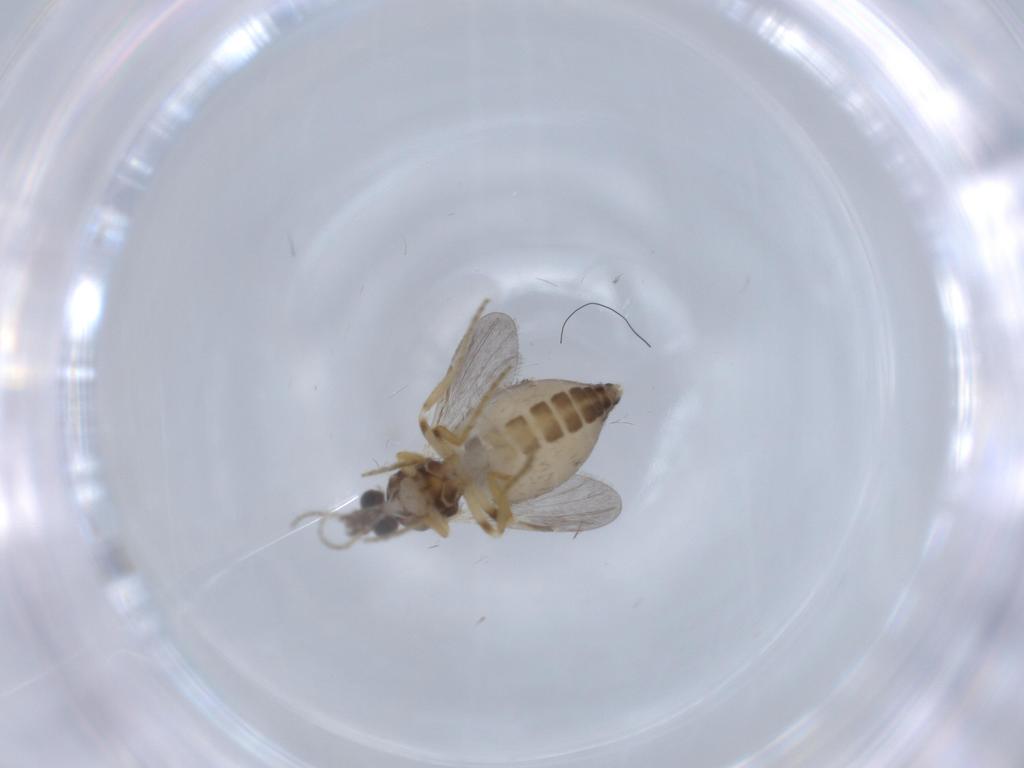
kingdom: Animalia
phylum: Arthropoda
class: Insecta
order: Diptera
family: Ceratopogonidae
